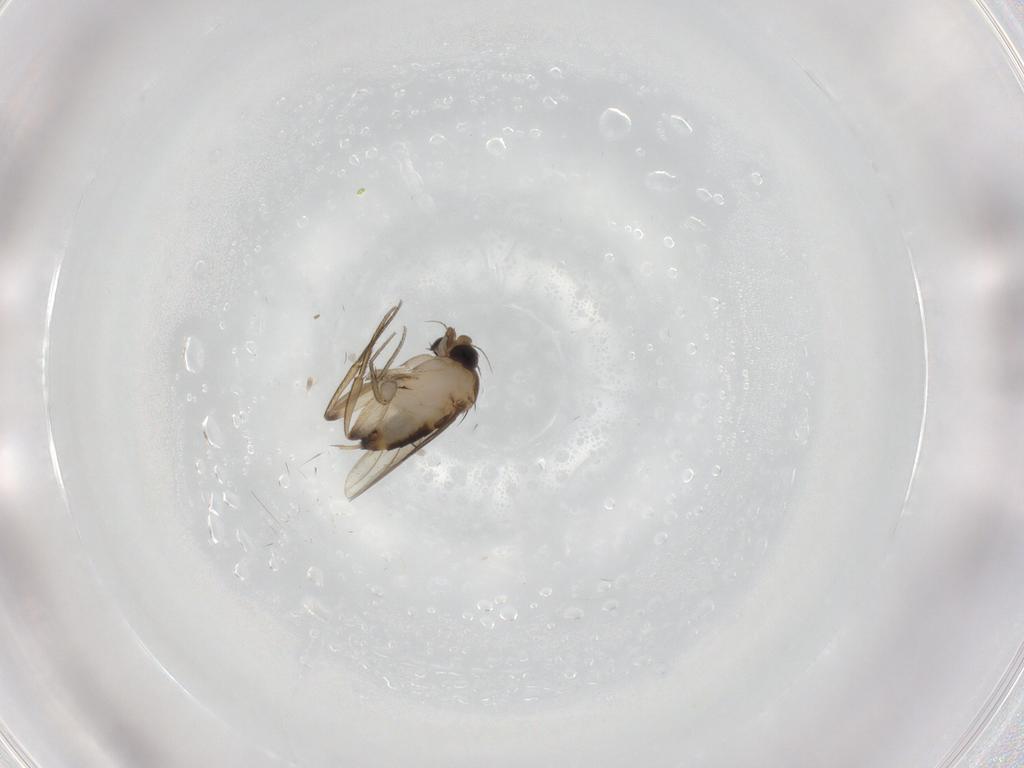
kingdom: Animalia
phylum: Arthropoda
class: Insecta
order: Diptera
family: Phoridae
